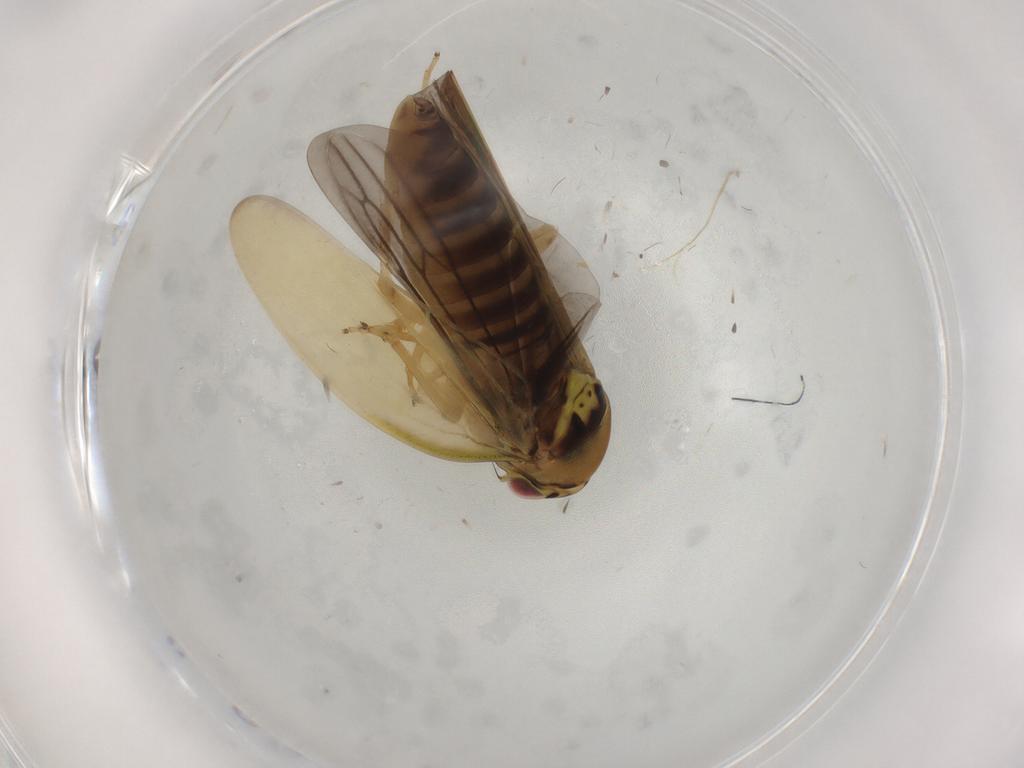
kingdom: Animalia
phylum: Arthropoda
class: Insecta
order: Hemiptera
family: Cicadellidae
